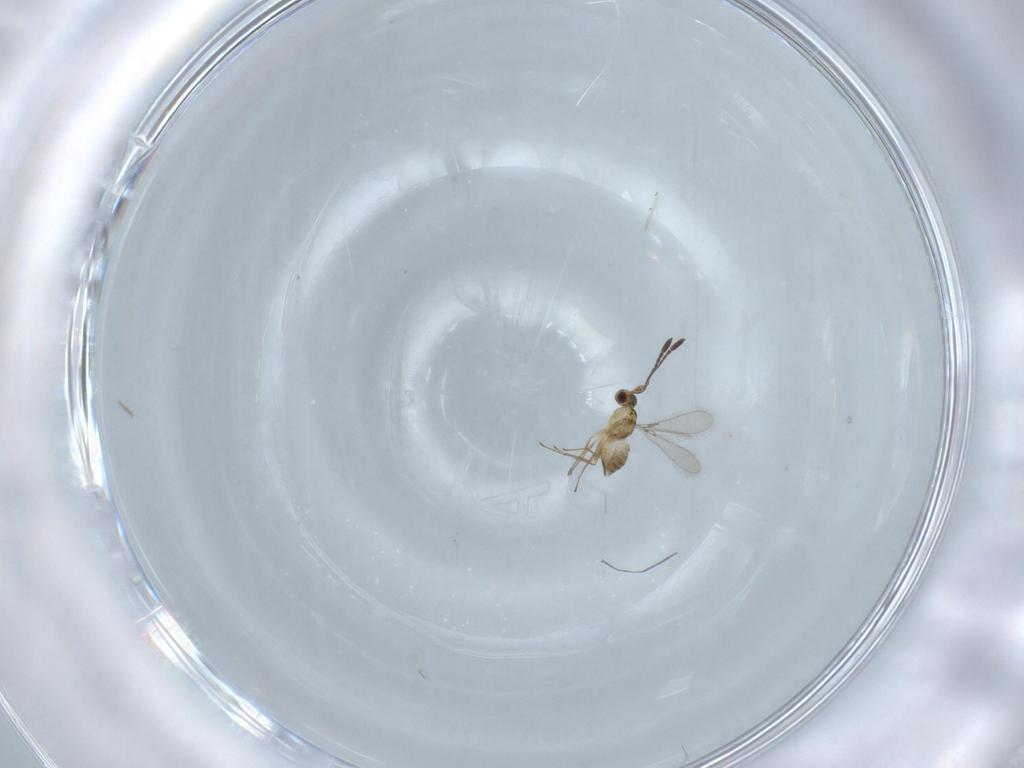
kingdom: Animalia
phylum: Arthropoda
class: Insecta
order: Hymenoptera
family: Mymaridae
